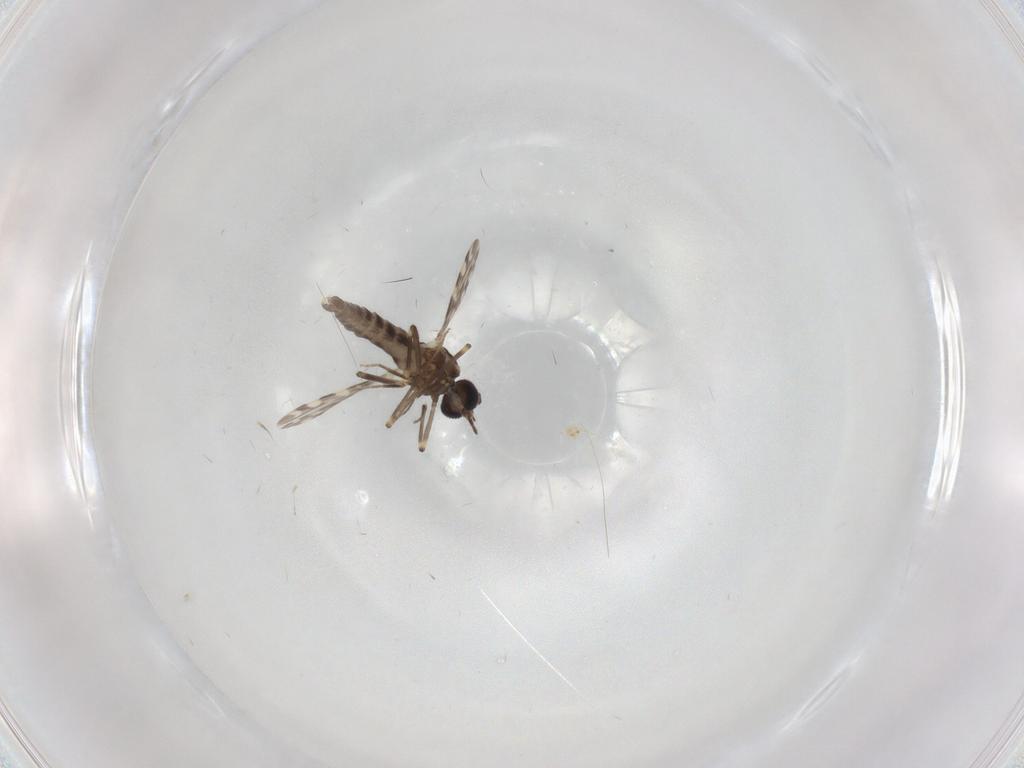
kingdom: Animalia
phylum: Arthropoda
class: Insecta
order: Diptera
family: Ceratopogonidae
